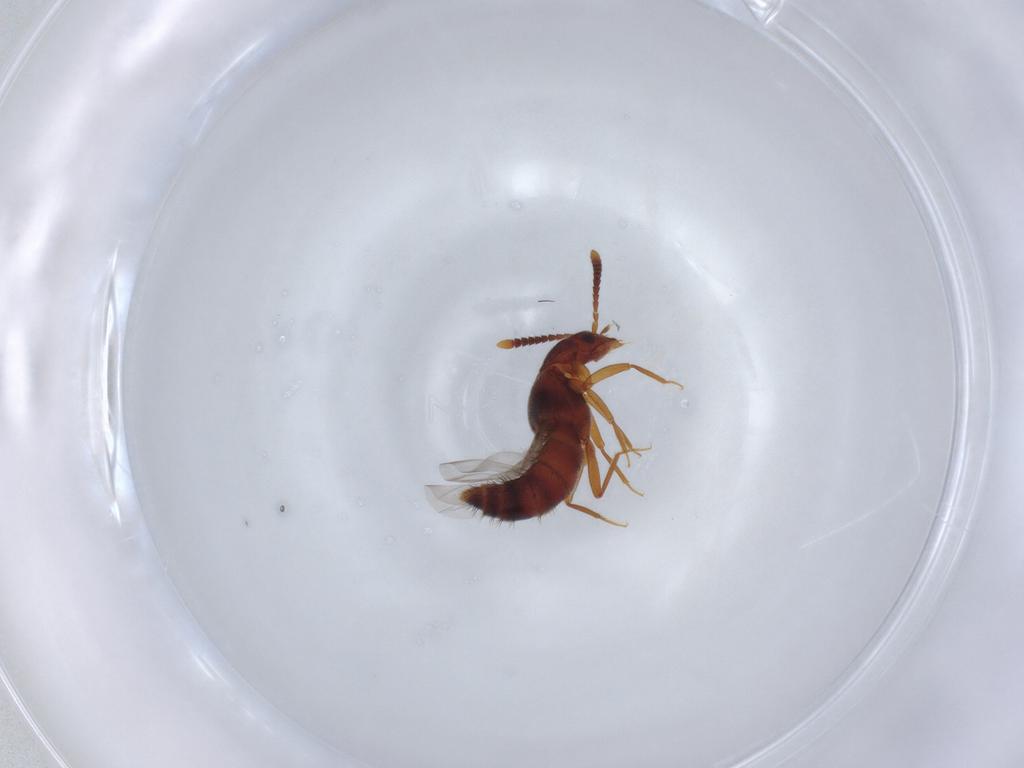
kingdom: Animalia
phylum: Arthropoda
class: Insecta
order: Coleoptera
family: Staphylinidae
